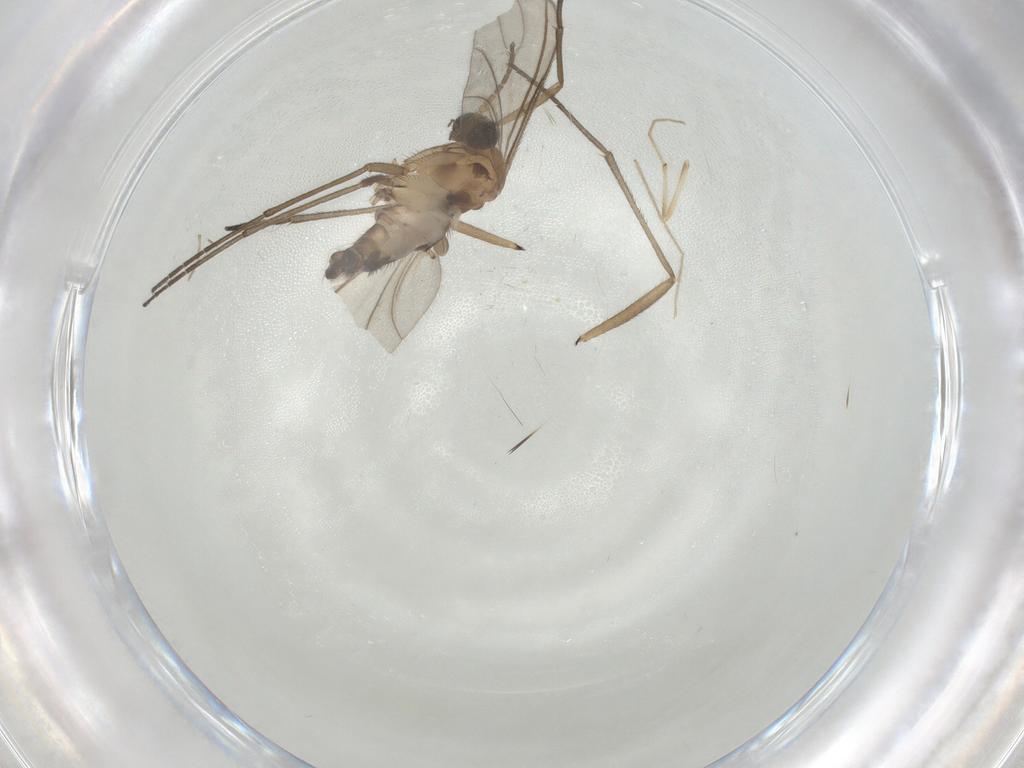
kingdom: Animalia
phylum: Arthropoda
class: Insecta
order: Diptera
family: Sciaridae
